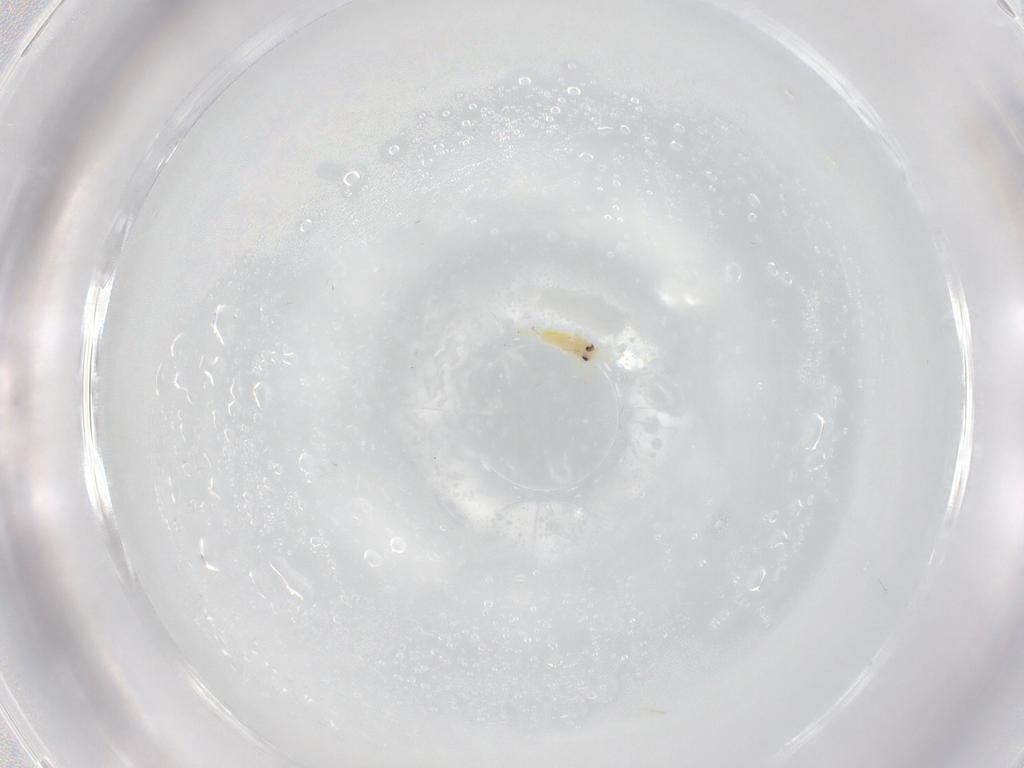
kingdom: Animalia
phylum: Arthropoda
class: Insecta
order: Hemiptera
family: Aleyrodidae
